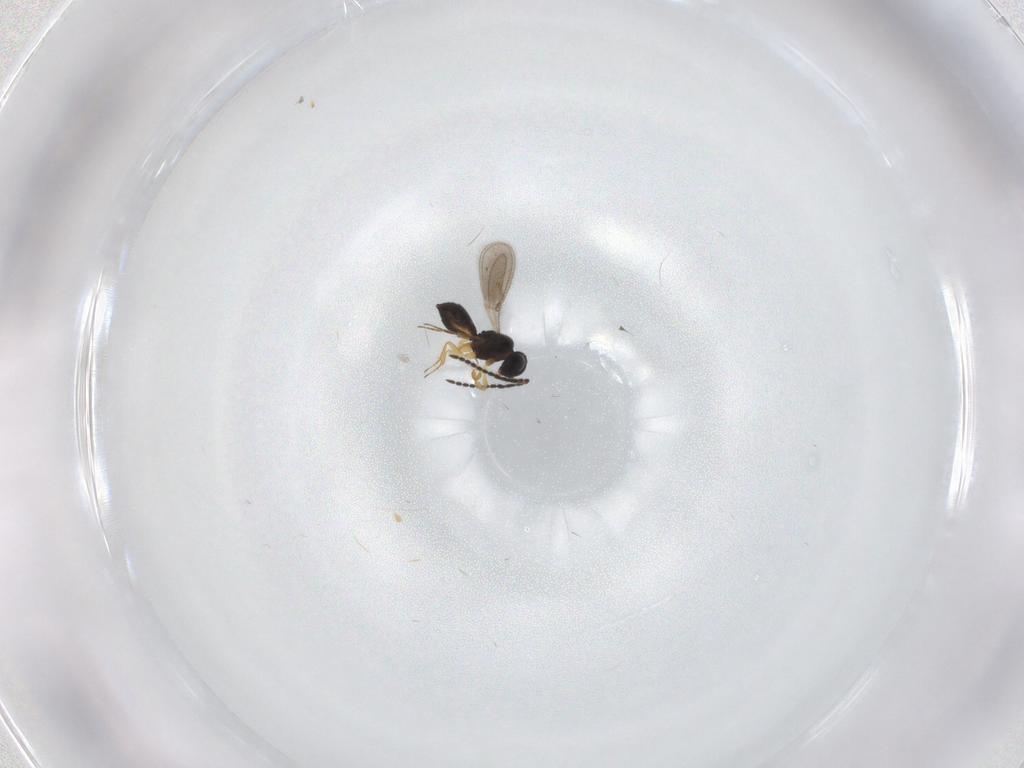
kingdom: Animalia
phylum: Arthropoda
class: Insecta
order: Hymenoptera
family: Scelionidae
